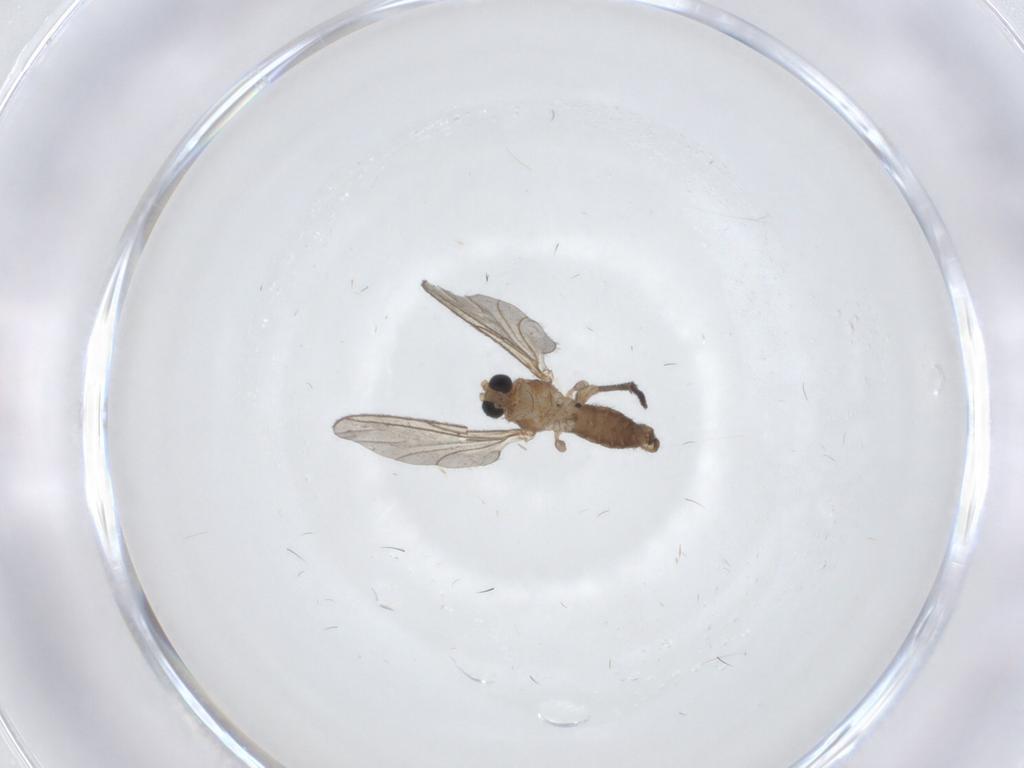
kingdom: Animalia
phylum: Arthropoda
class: Insecta
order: Diptera
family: Sciaridae
